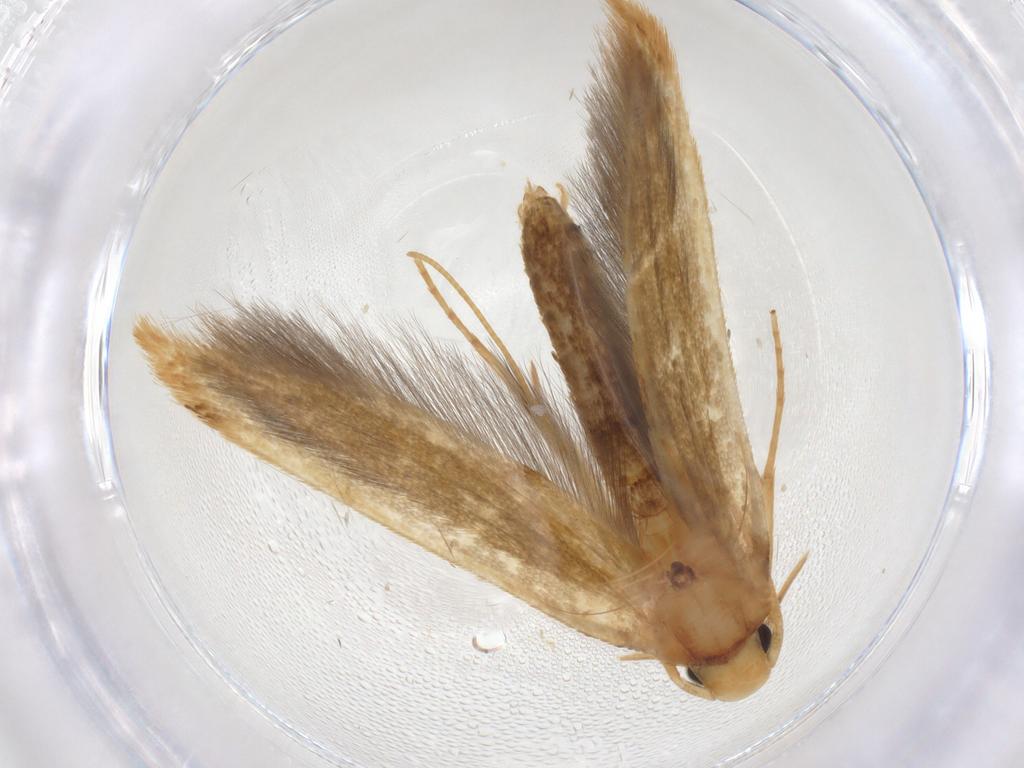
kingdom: Animalia
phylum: Arthropoda
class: Insecta
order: Lepidoptera
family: Tineidae
